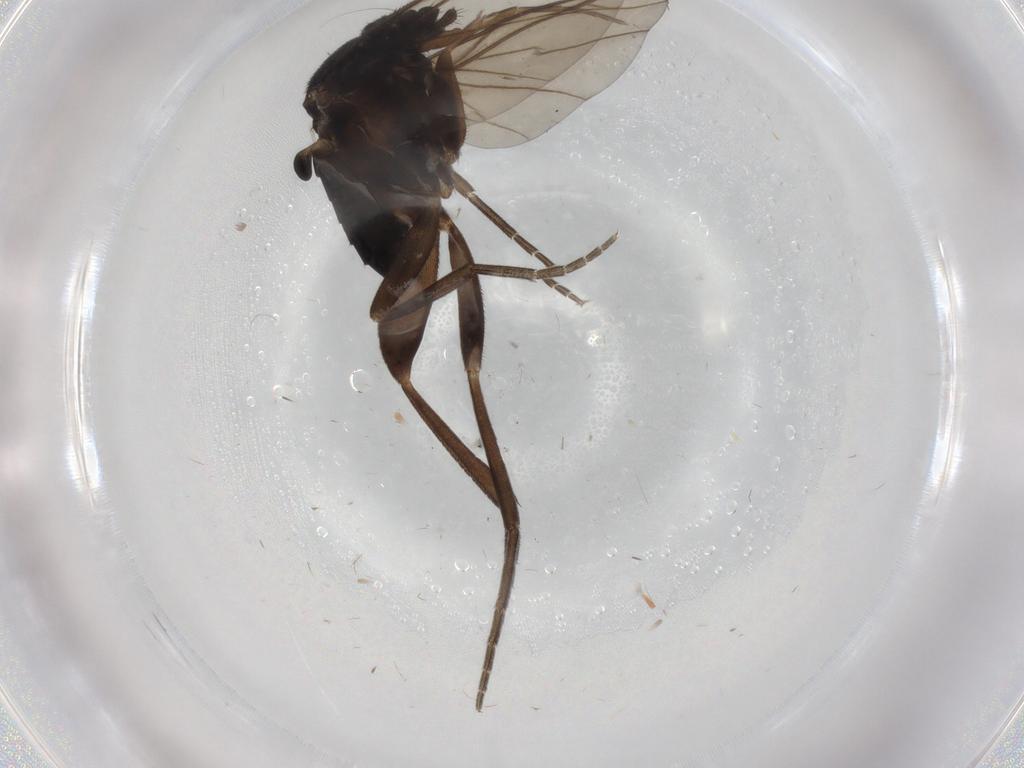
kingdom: Animalia
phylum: Arthropoda
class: Insecta
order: Diptera
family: Phoridae
